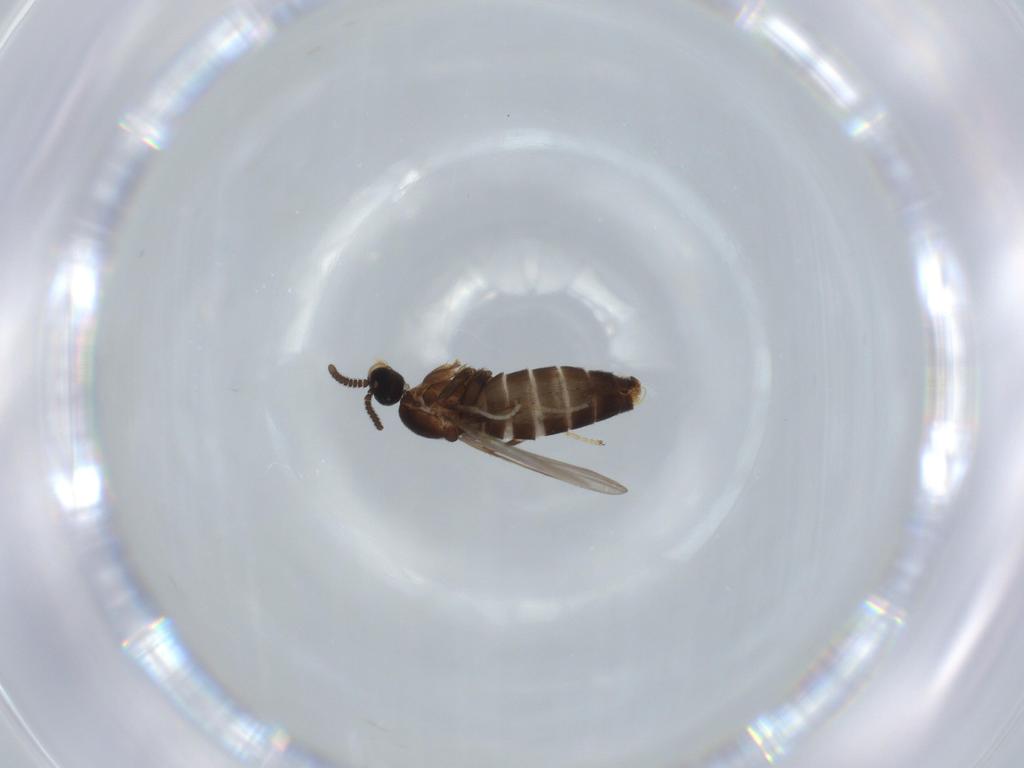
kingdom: Animalia
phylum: Arthropoda
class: Insecta
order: Diptera
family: Scatopsidae
